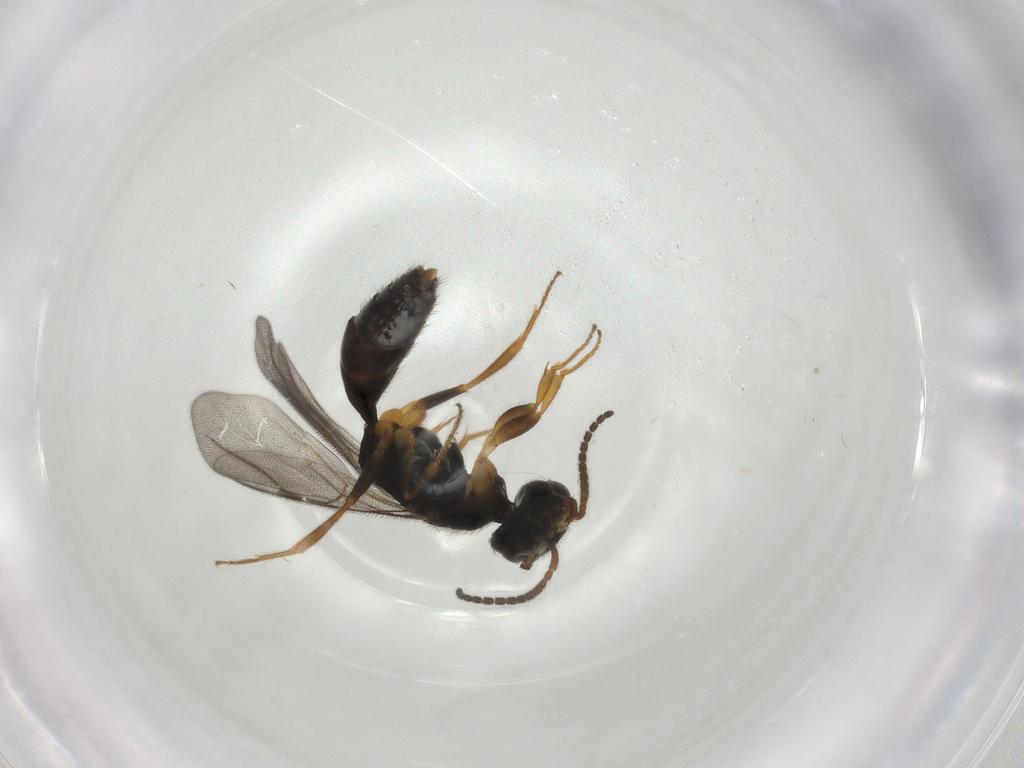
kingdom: Animalia
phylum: Arthropoda
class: Insecta
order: Hymenoptera
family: Bethylidae
